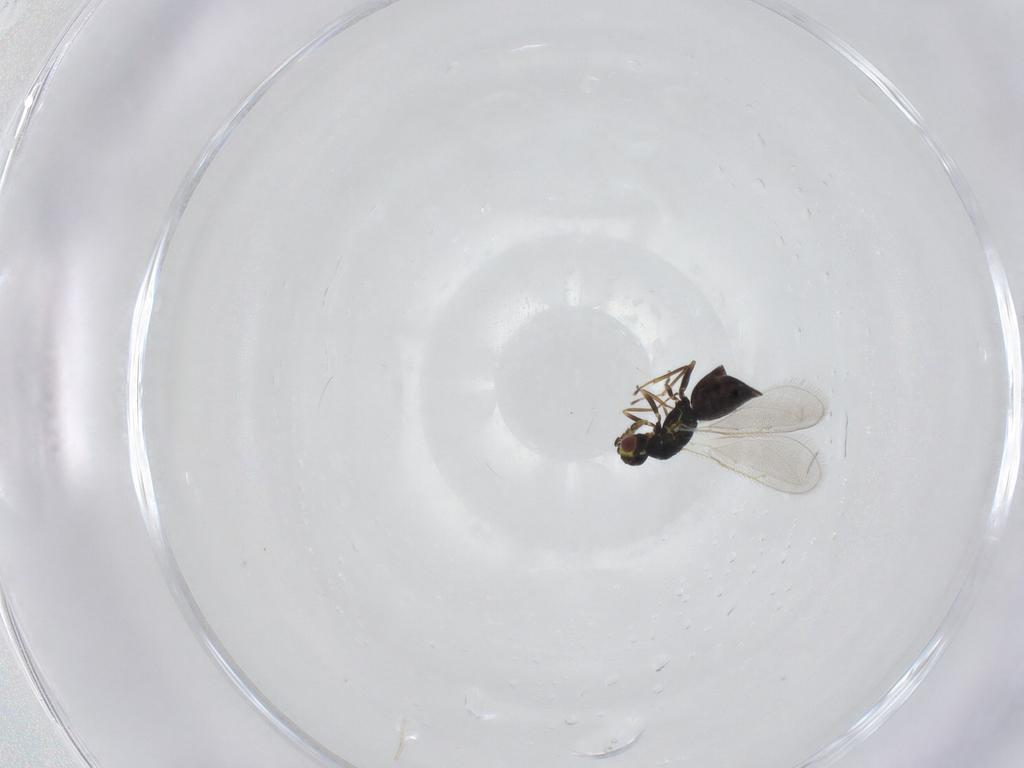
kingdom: Animalia
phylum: Arthropoda
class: Insecta
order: Hymenoptera
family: Eulophidae
